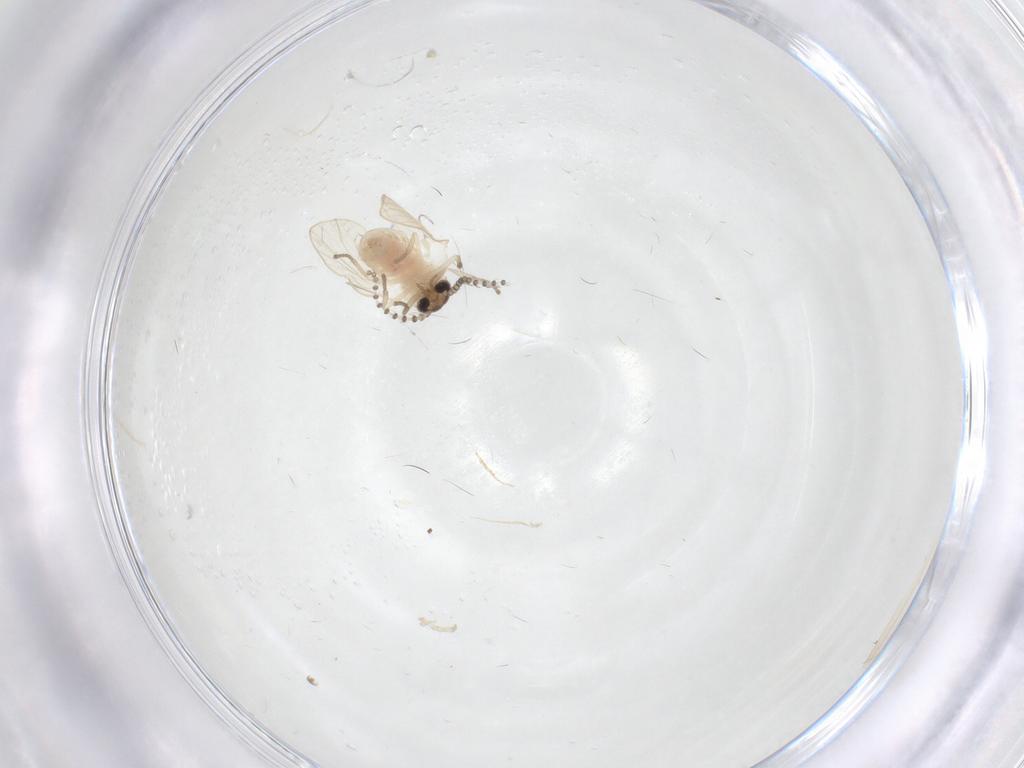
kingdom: Animalia
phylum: Arthropoda
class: Insecta
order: Diptera
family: Psychodidae
